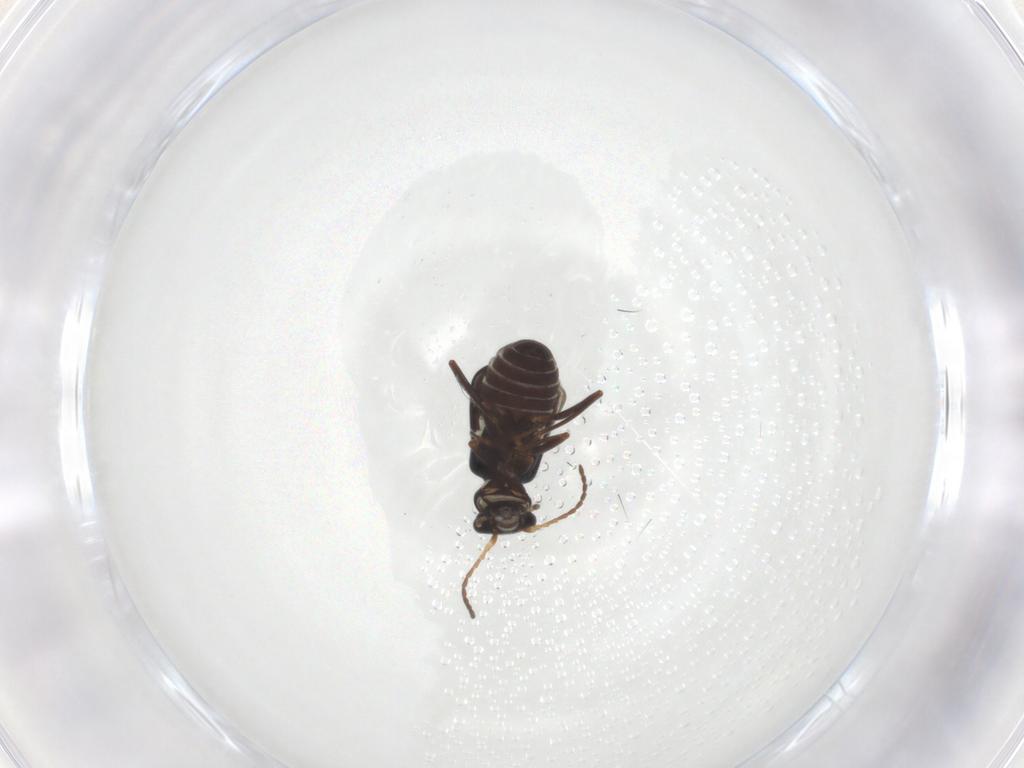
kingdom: Animalia
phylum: Arthropoda
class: Insecta
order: Coleoptera
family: Melyridae
